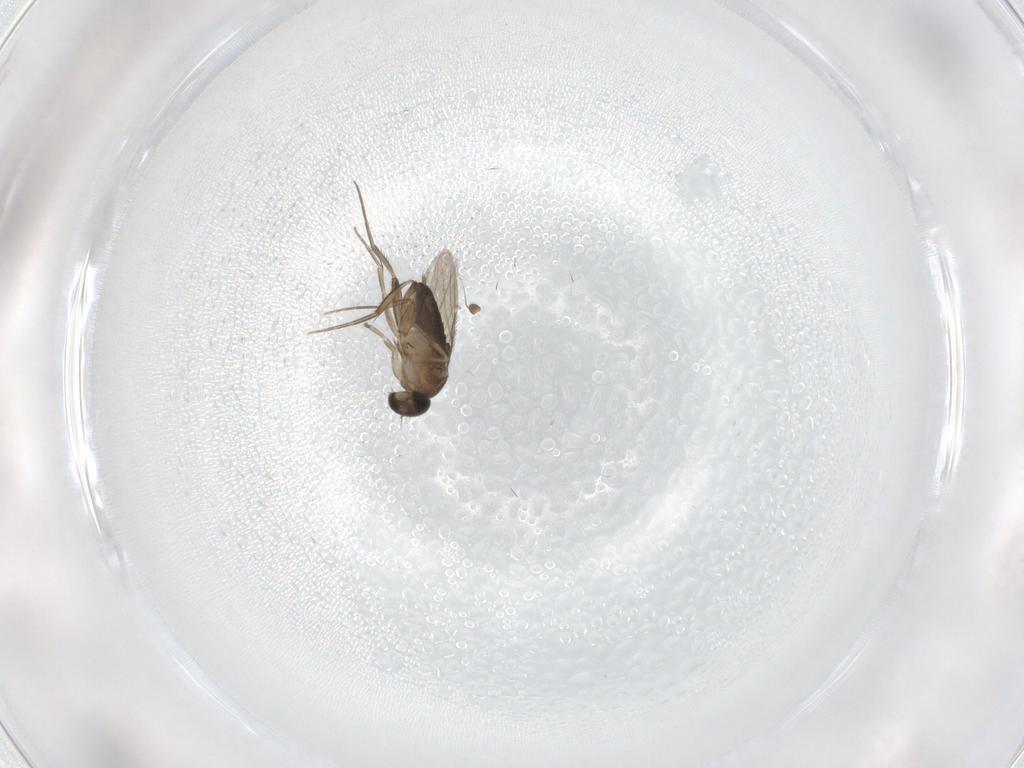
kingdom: Animalia
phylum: Arthropoda
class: Insecta
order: Diptera
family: Phoridae
